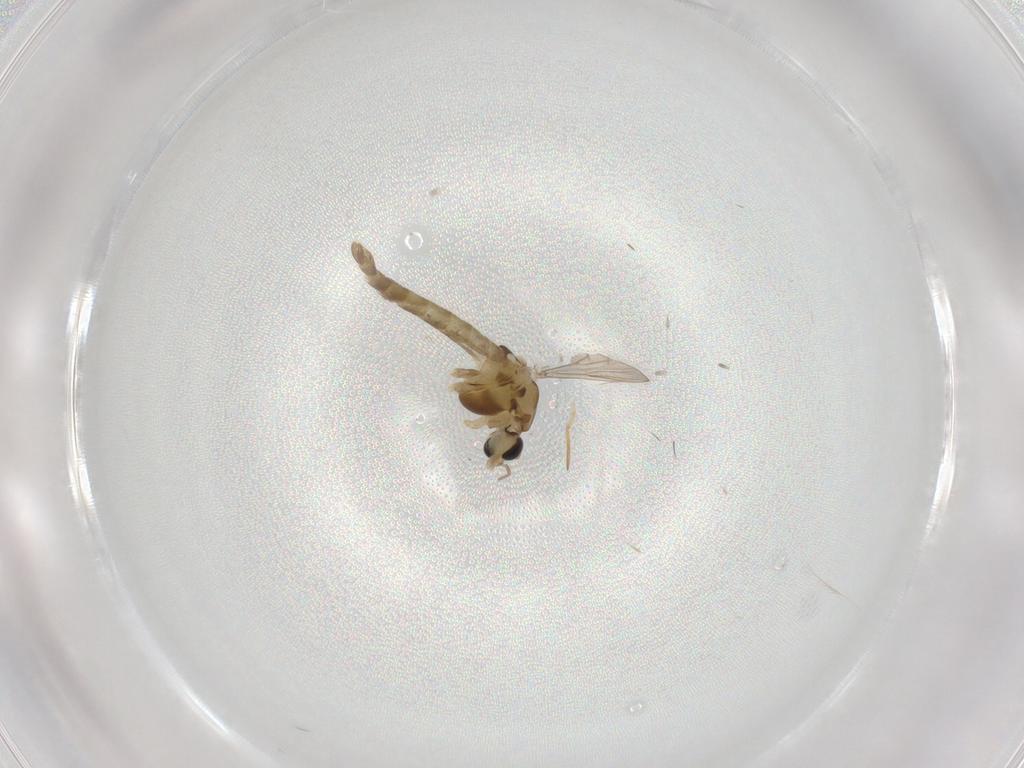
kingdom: Animalia
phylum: Arthropoda
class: Insecta
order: Diptera
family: Chironomidae
